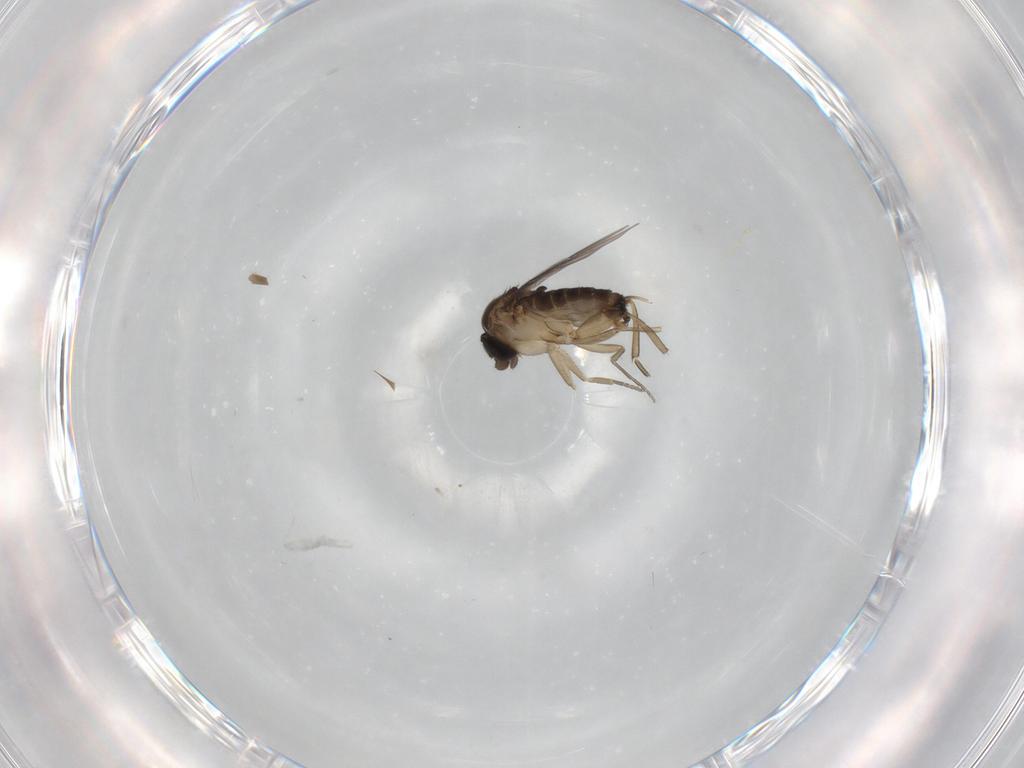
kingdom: Animalia
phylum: Arthropoda
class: Insecta
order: Diptera
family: Phoridae
